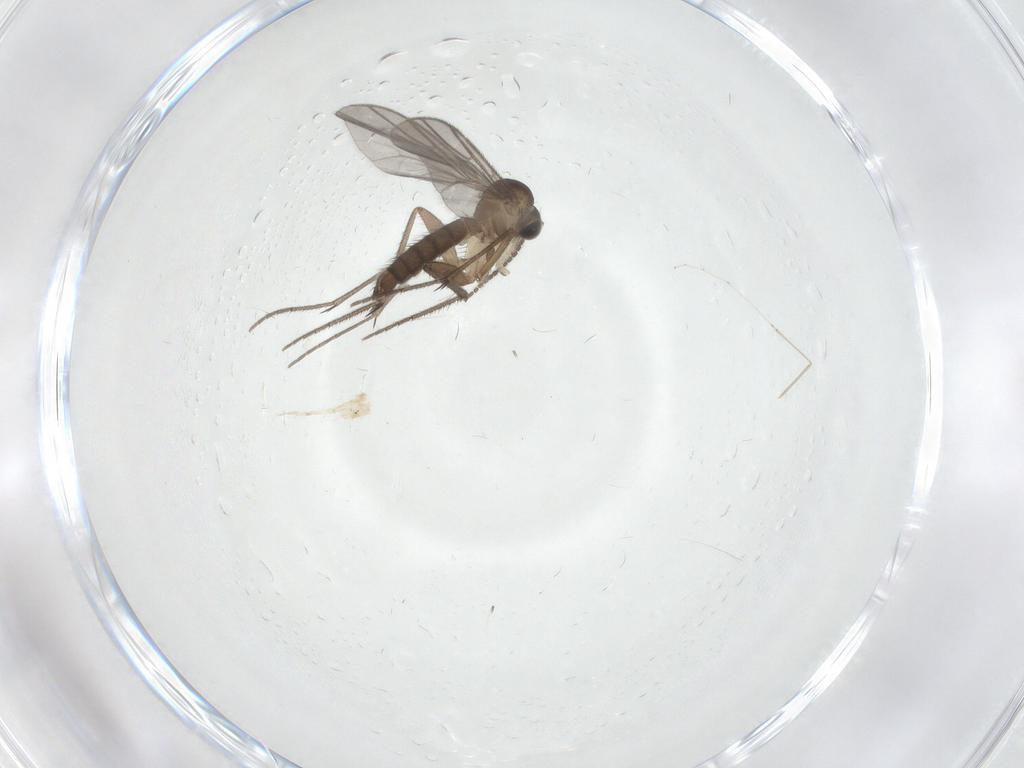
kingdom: Animalia
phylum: Arthropoda
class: Insecta
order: Diptera
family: Mycetophilidae
